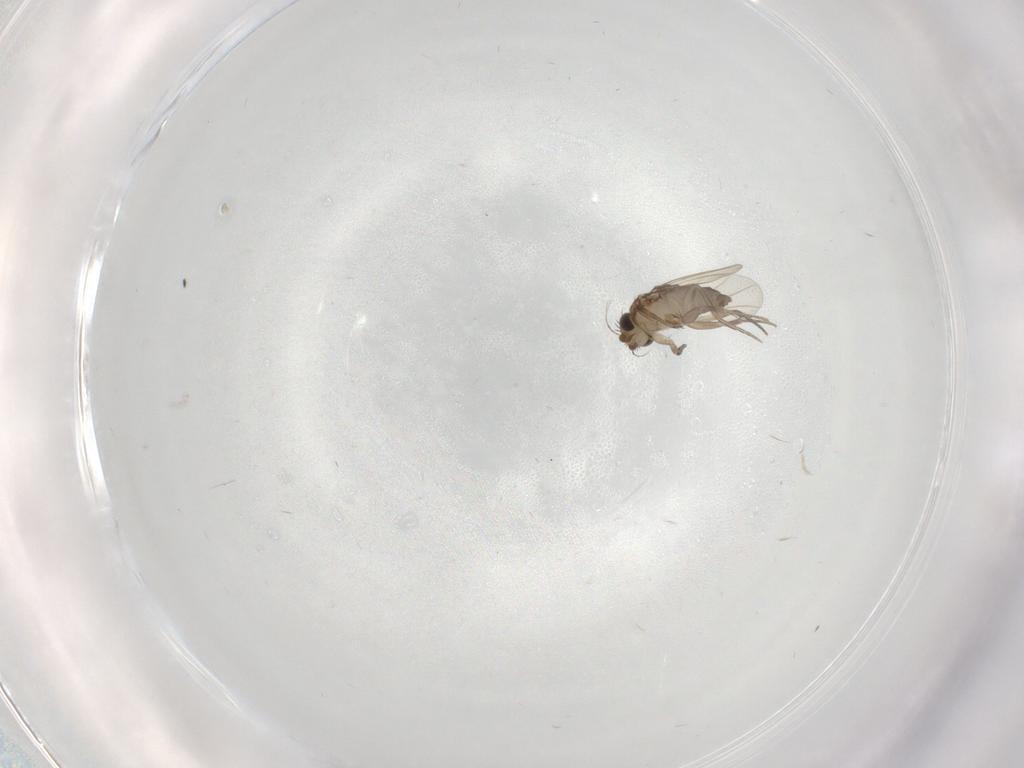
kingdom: Animalia
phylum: Arthropoda
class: Insecta
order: Diptera
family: Phoridae
